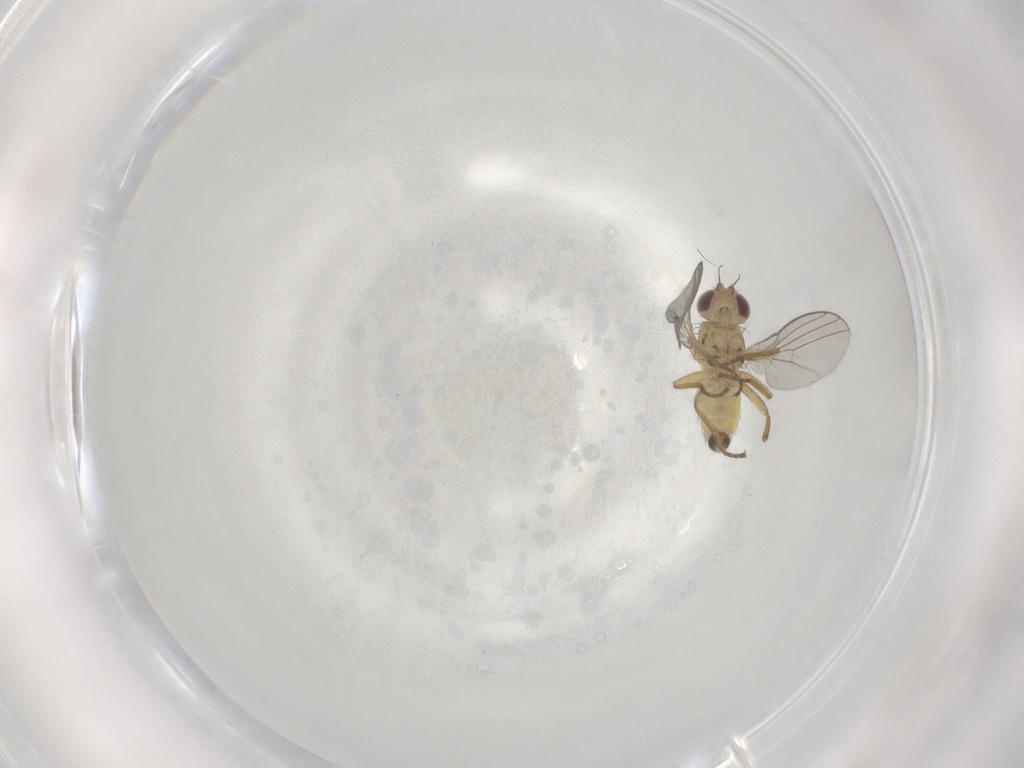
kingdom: Animalia
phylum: Arthropoda
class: Insecta
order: Diptera
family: Agromyzidae
